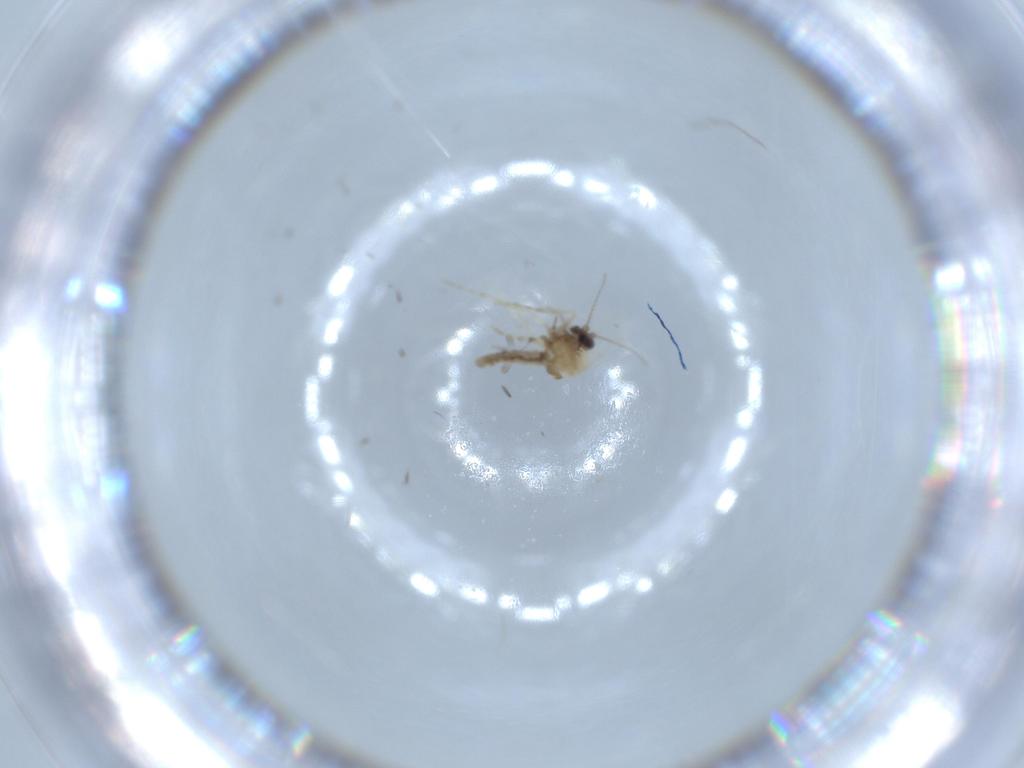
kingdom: Animalia
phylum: Arthropoda
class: Insecta
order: Diptera
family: Ceratopogonidae
